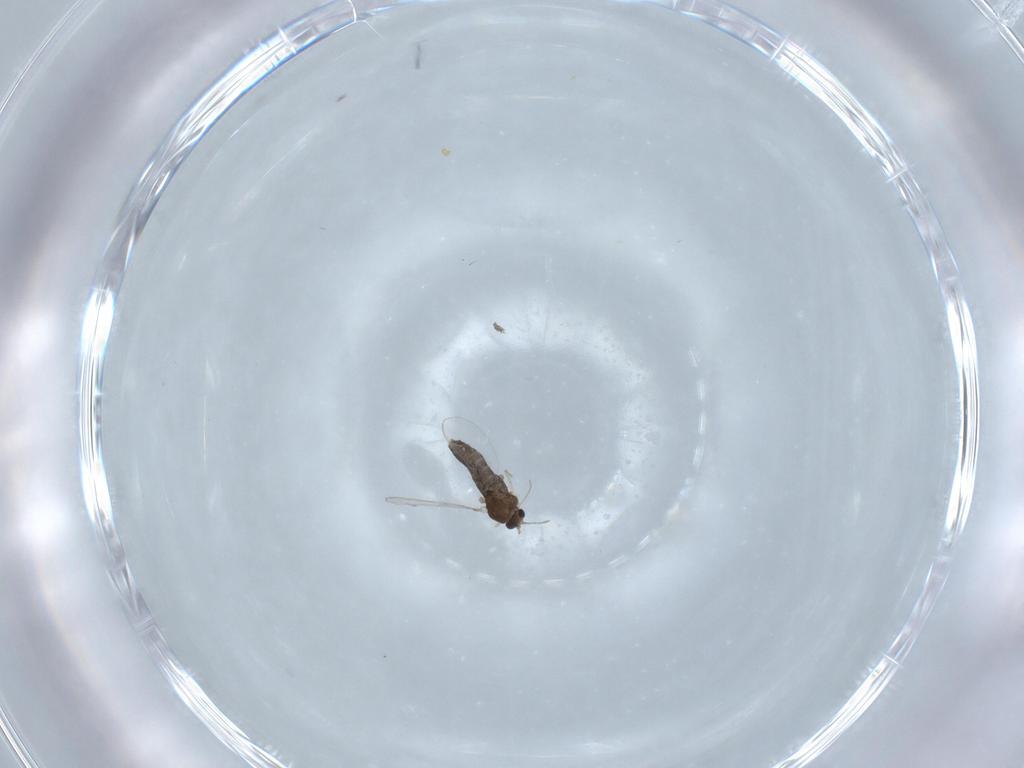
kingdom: Animalia
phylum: Arthropoda
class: Insecta
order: Diptera
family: Chironomidae
